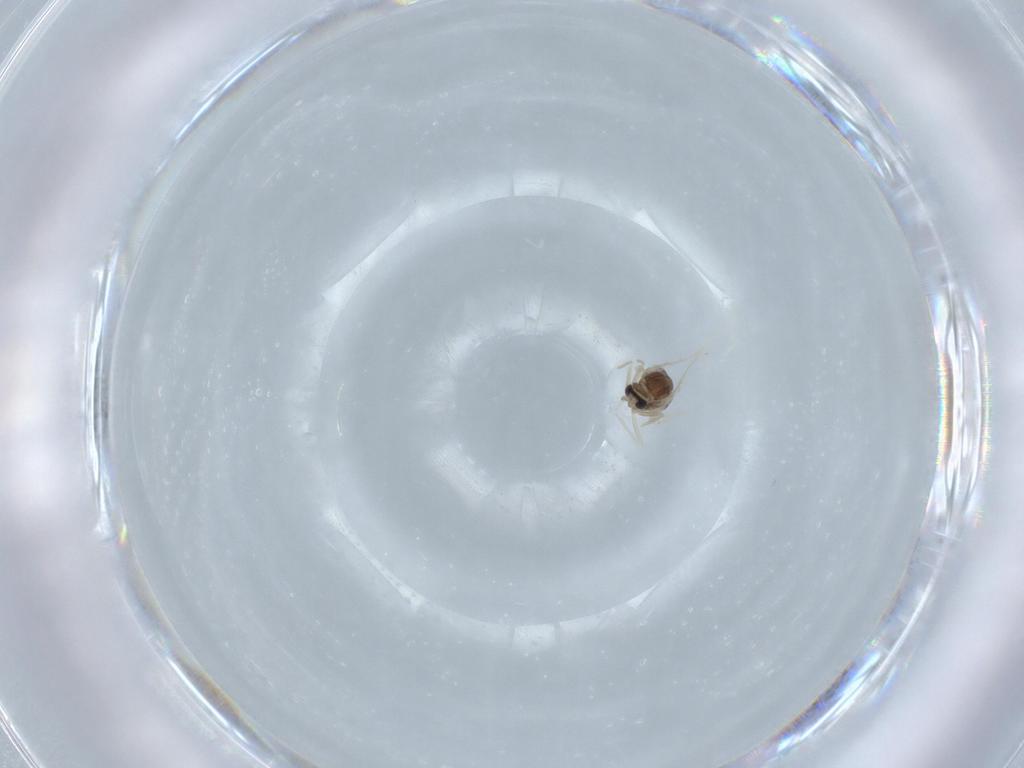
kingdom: Animalia
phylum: Arthropoda
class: Insecta
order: Diptera
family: Cecidomyiidae
